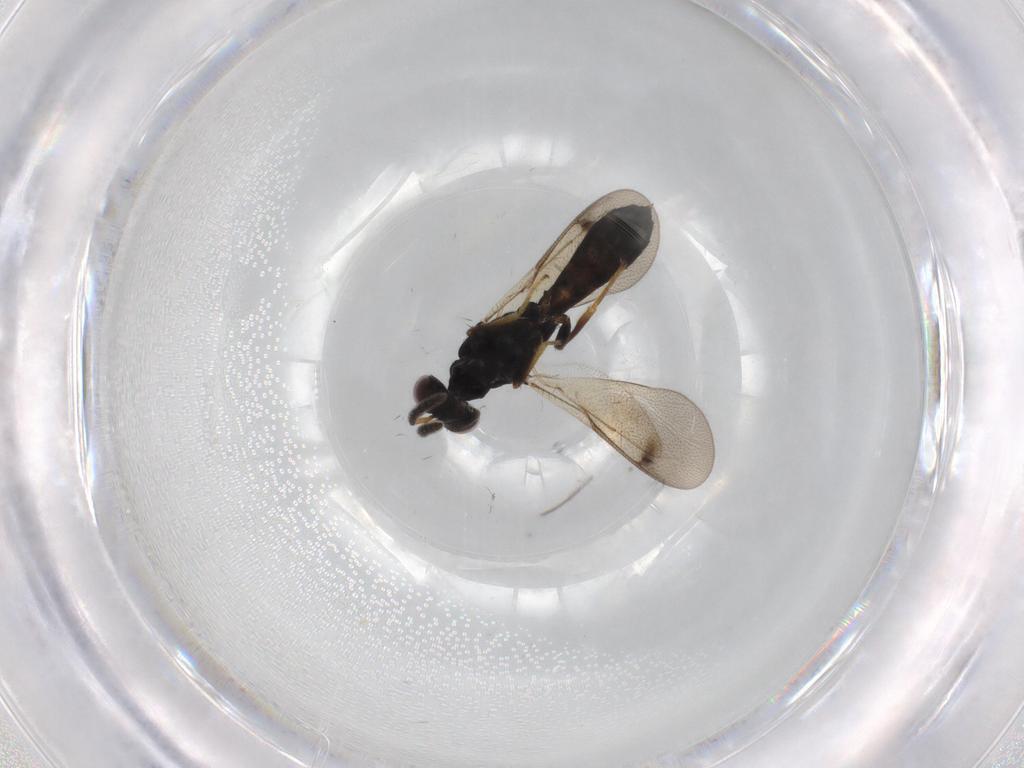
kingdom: Animalia
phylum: Arthropoda
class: Insecta
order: Hymenoptera
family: Pteromalidae
